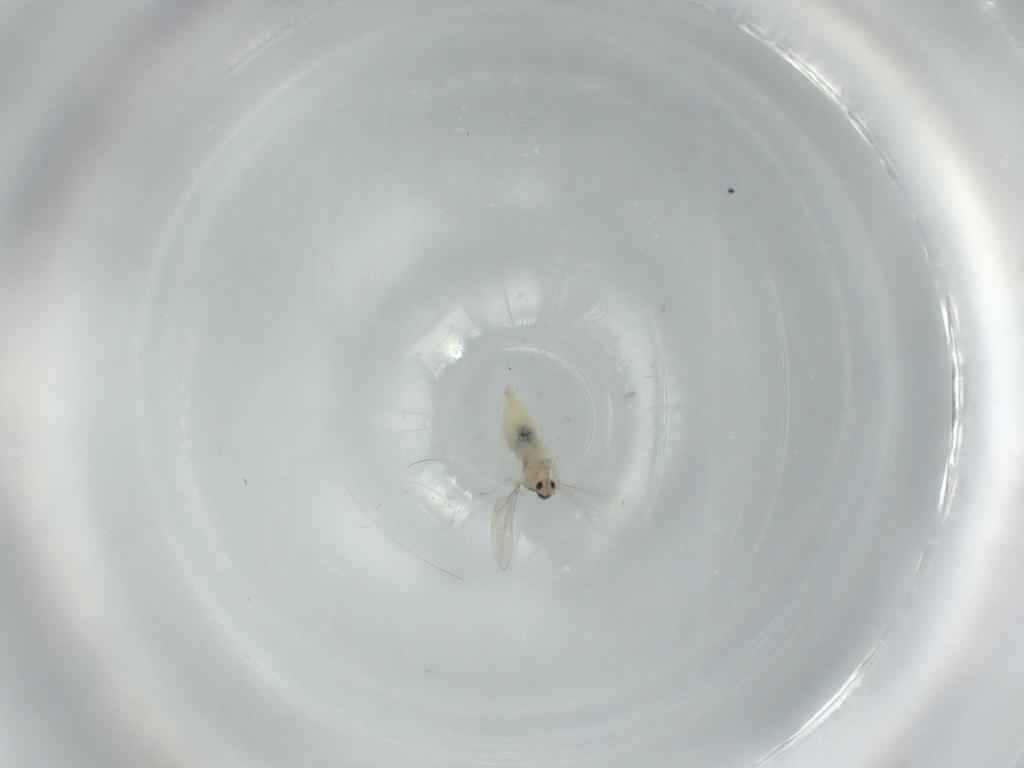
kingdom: Animalia
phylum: Arthropoda
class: Insecta
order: Diptera
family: Cecidomyiidae
